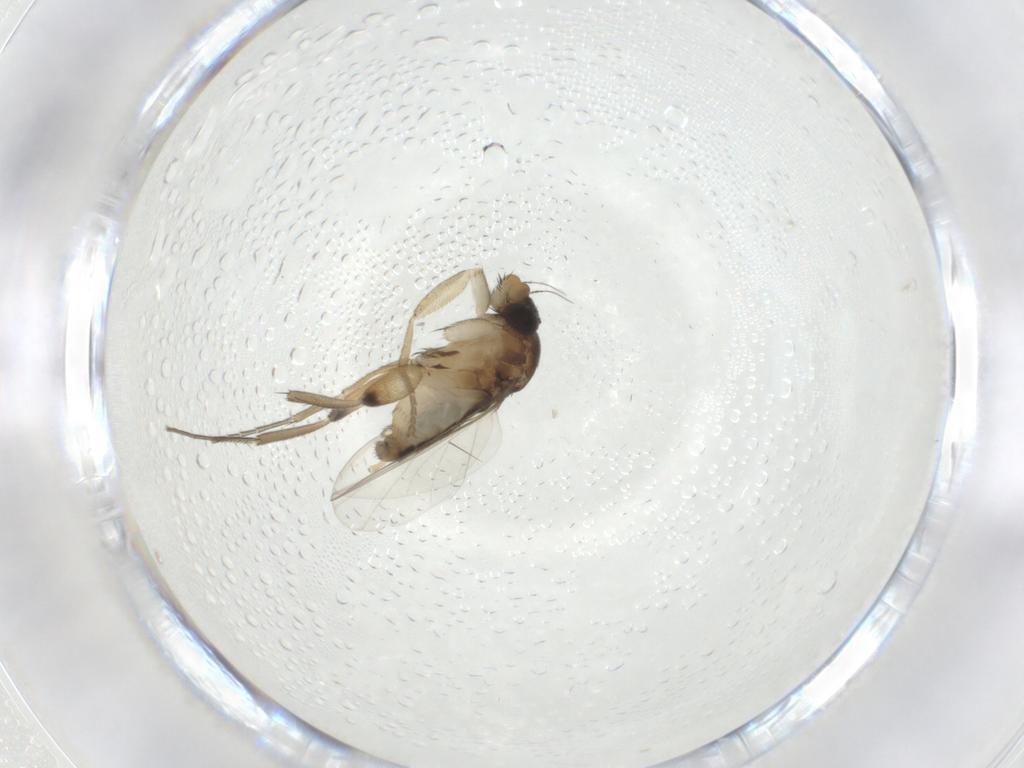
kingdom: Animalia
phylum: Arthropoda
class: Insecta
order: Diptera
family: Phoridae
